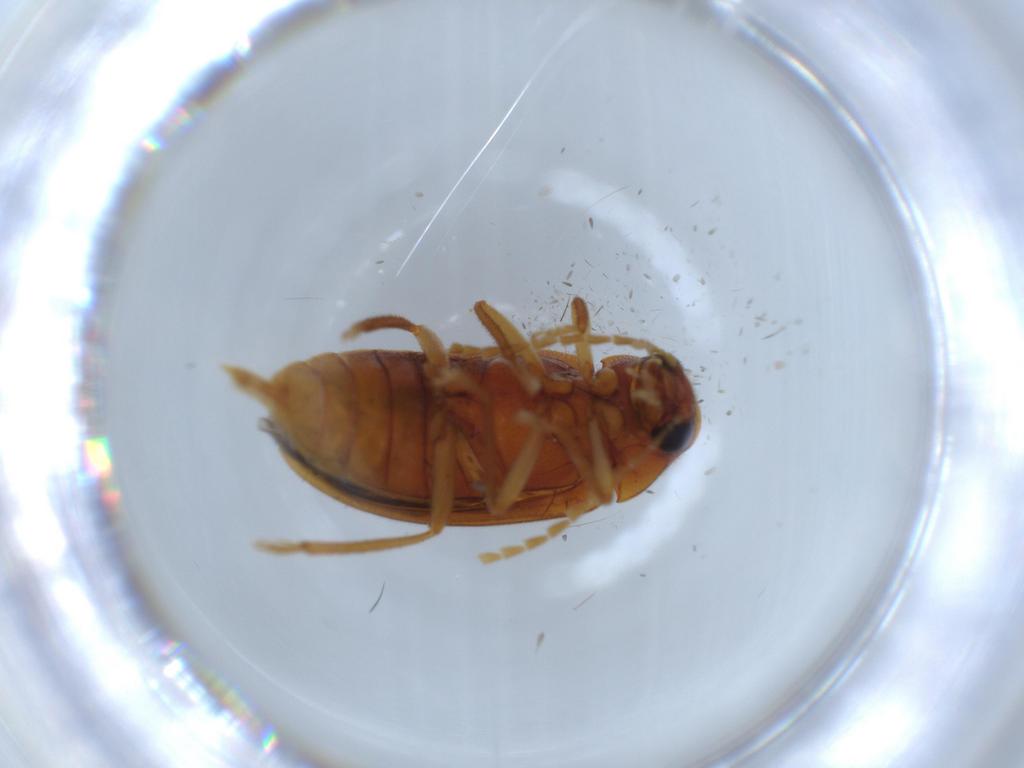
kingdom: Animalia
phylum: Arthropoda
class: Insecta
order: Coleoptera
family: Ptilodactylidae
